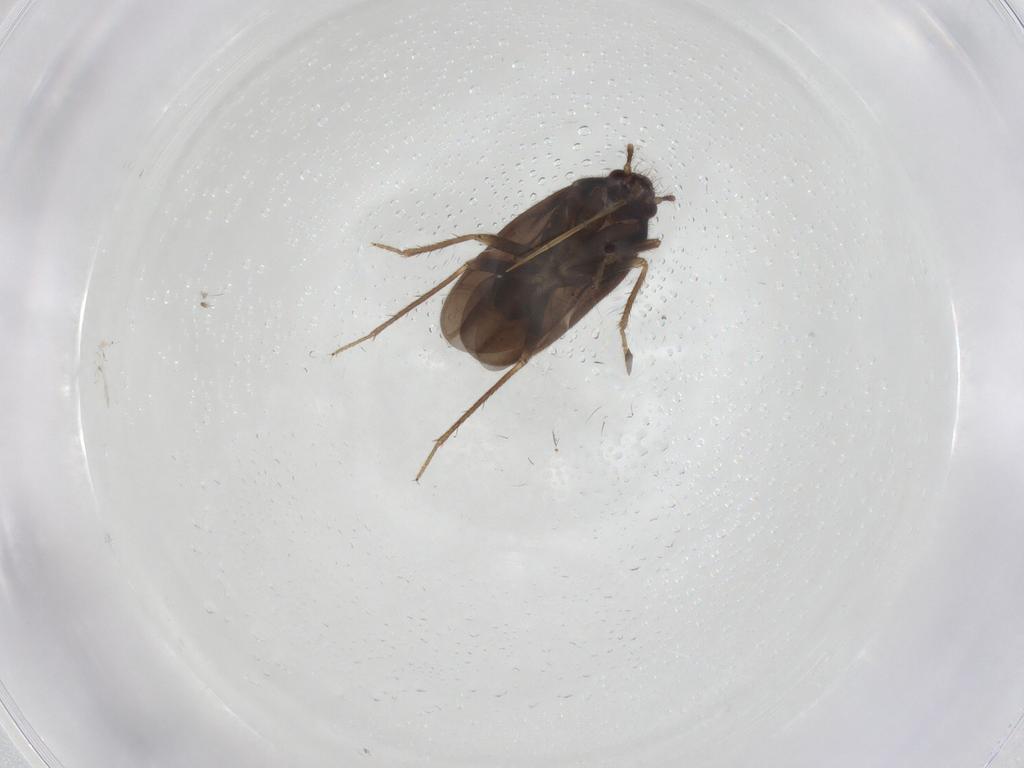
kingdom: Animalia
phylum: Arthropoda
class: Insecta
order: Hemiptera
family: Ceratocombidae
